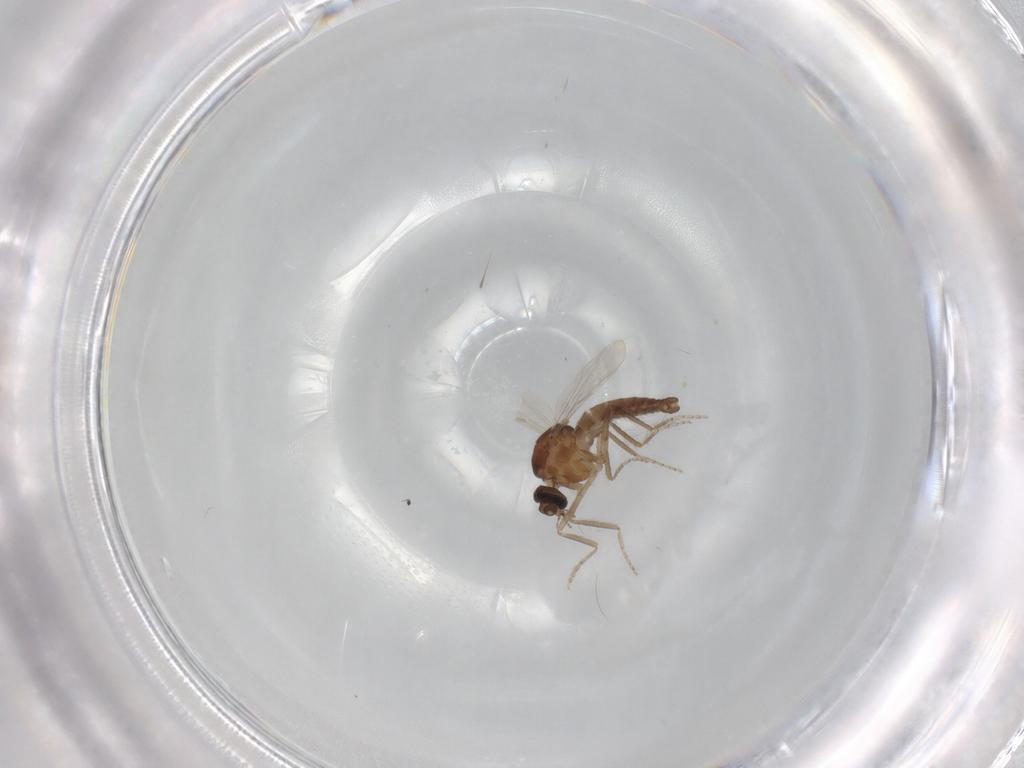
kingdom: Animalia
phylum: Arthropoda
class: Insecta
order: Diptera
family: Ceratopogonidae
